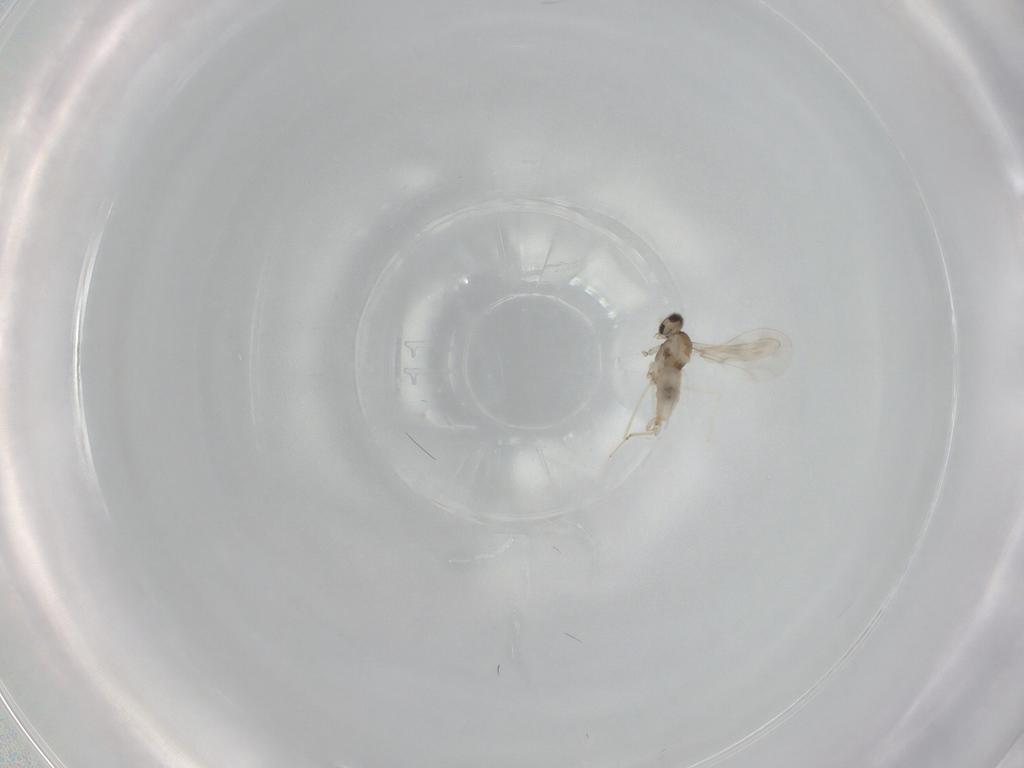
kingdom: Animalia
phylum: Arthropoda
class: Insecta
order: Diptera
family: Cecidomyiidae
